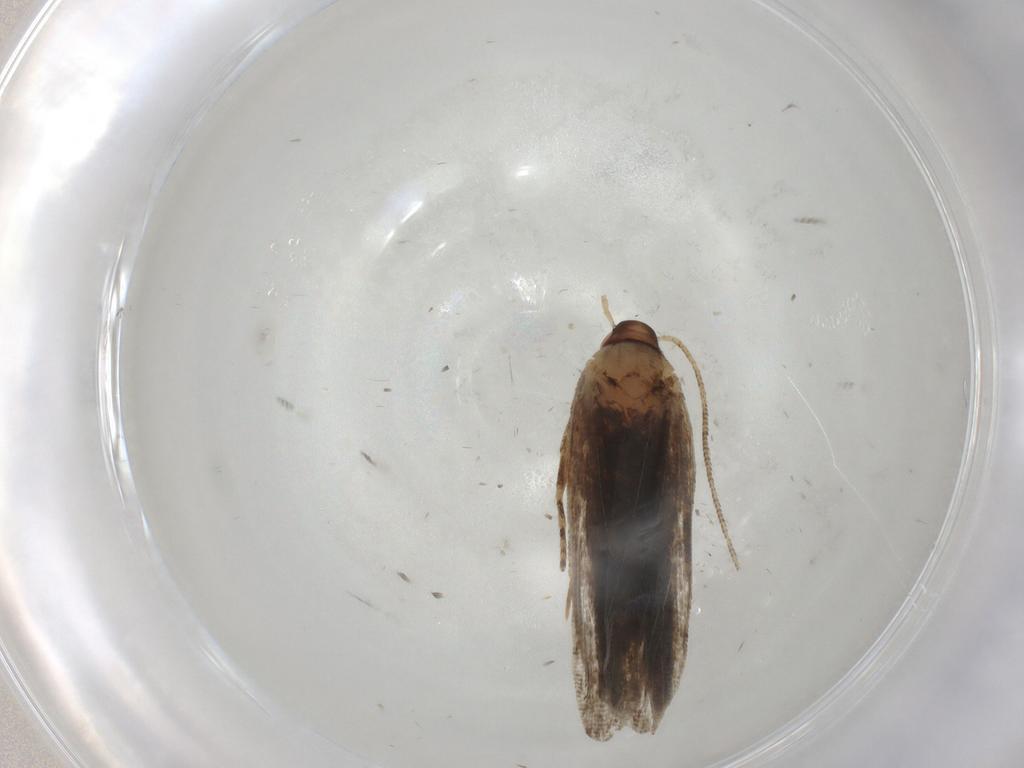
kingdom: Animalia
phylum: Arthropoda
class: Insecta
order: Lepidoptera
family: Gelechiidae
